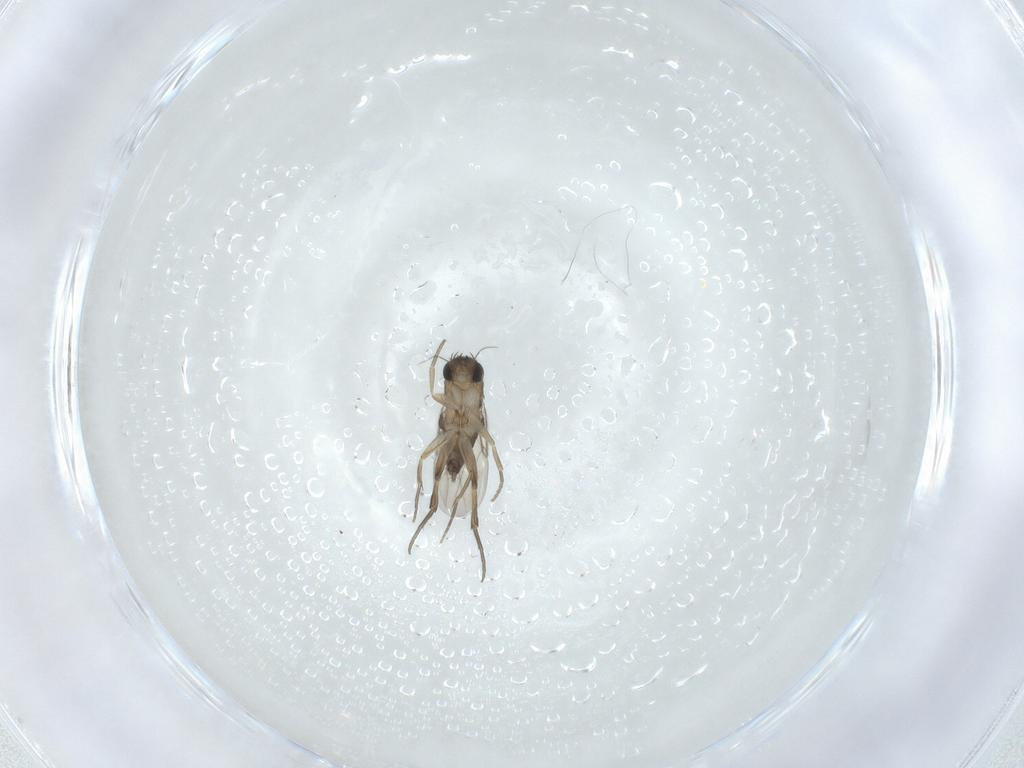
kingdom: Animalia
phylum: Arthropoda
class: Insecta
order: Diptera
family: Phoridae
